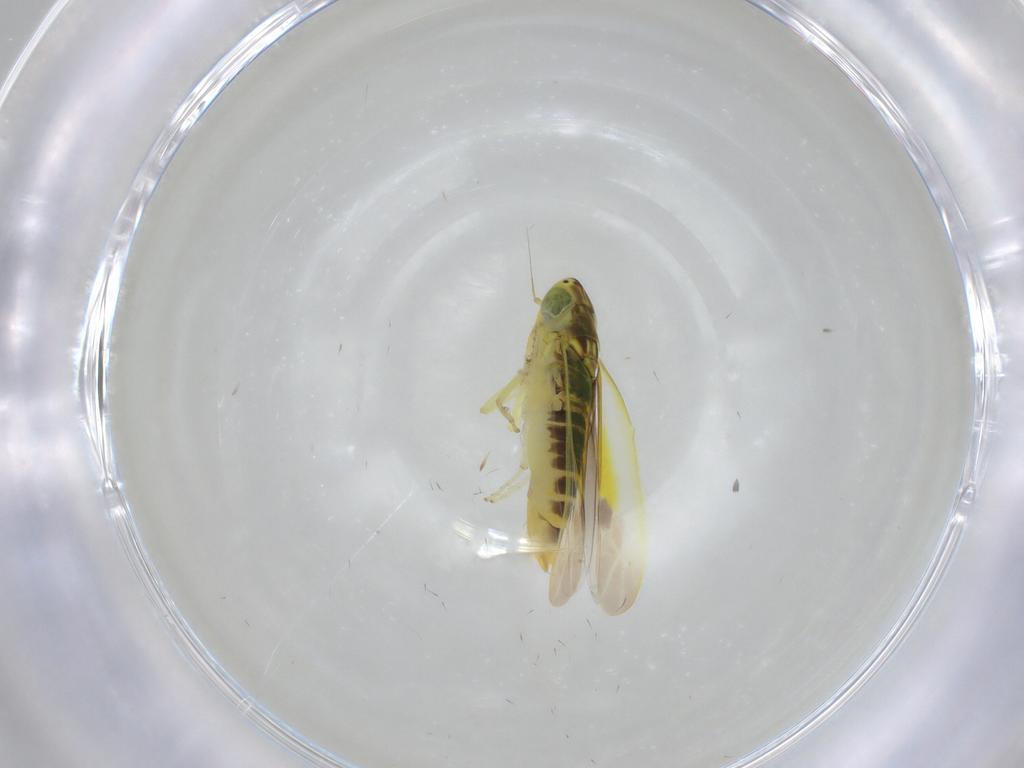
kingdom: Animalia
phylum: Arthropoda
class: Insecta
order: Hemiptera
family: Cicadellidae
